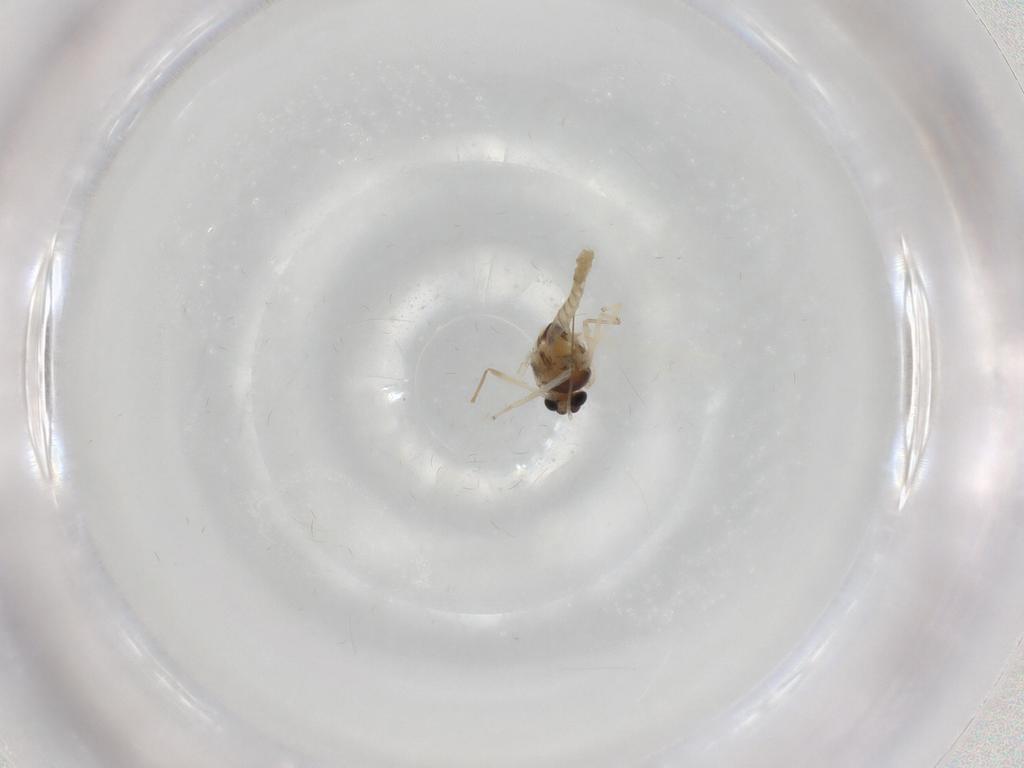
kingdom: Animalia
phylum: Arthropoda
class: Insecta
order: Diptera
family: Chironomidae
